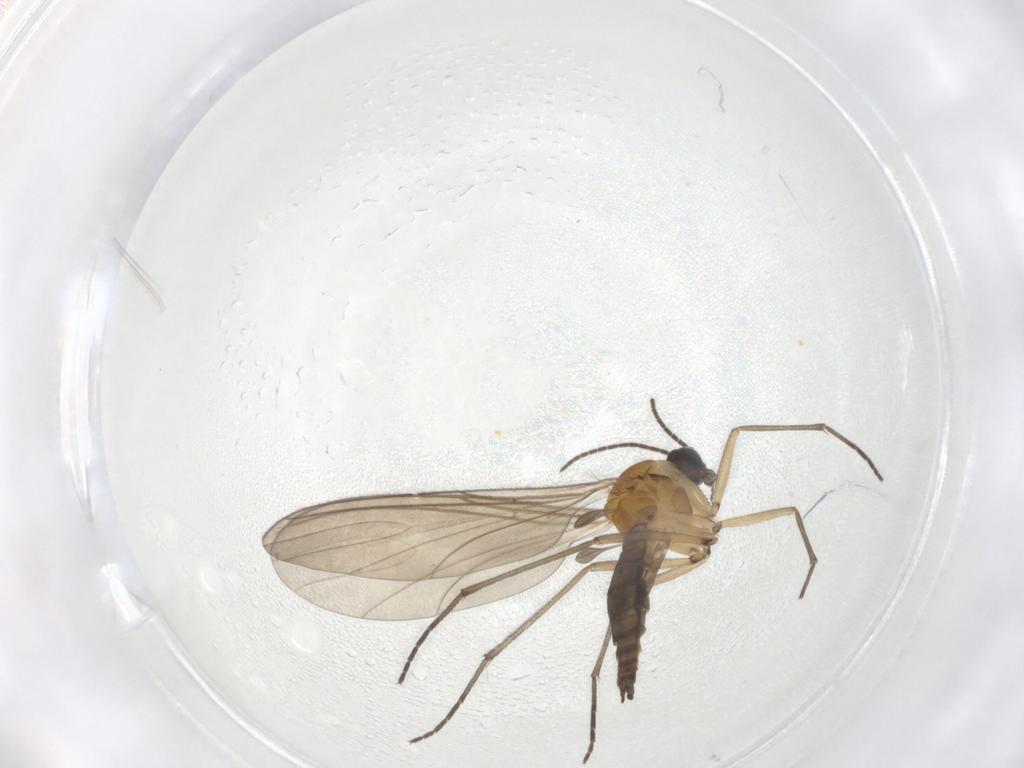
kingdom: Animalia
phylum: Arthropoda
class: Insecta
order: Diptera
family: Sciaridae
